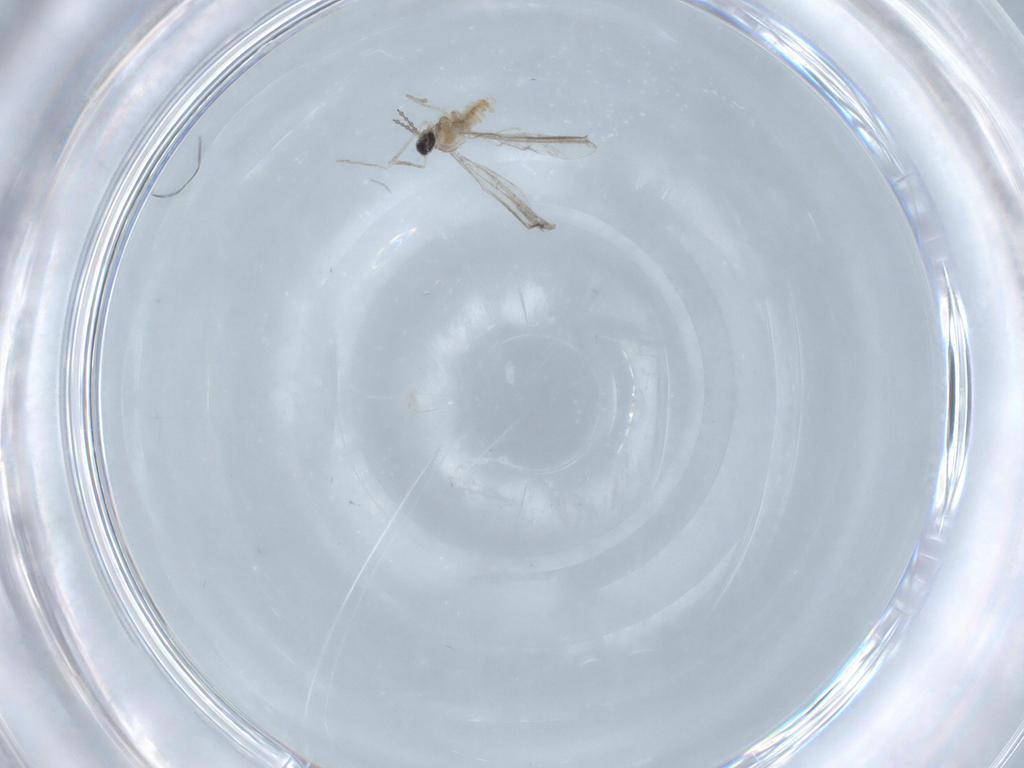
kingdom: Animalia
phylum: Arthropoda
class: Insecta
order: Diptera
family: Cecidomyiidae
